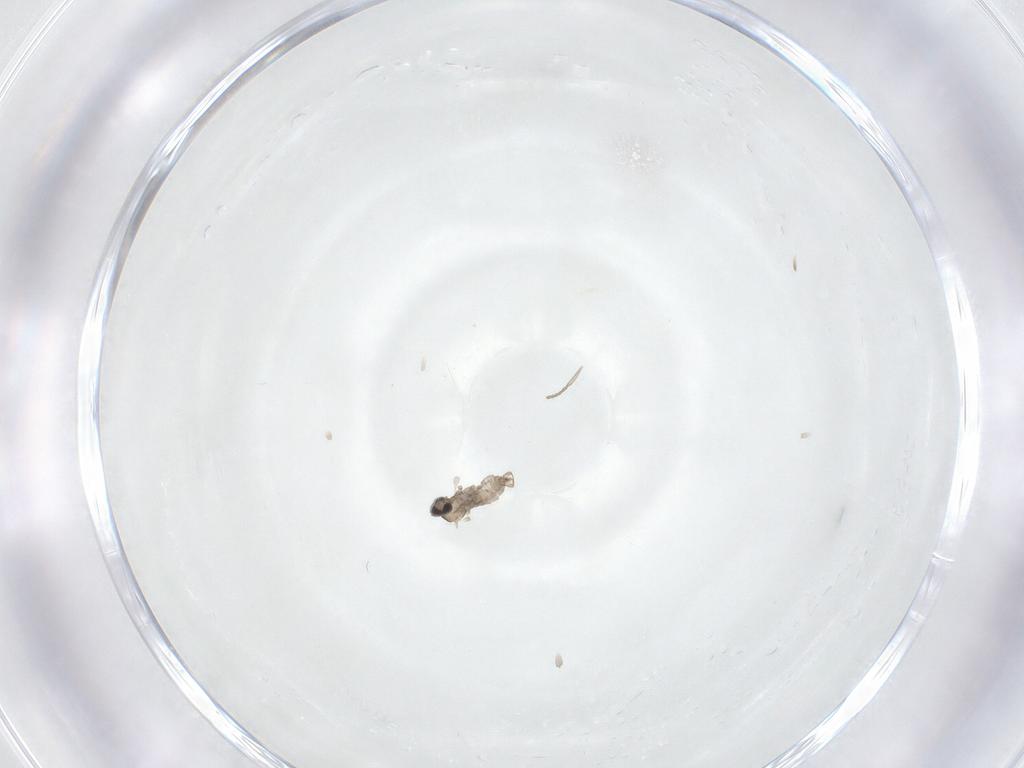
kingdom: Animalia
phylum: Arthropoda
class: Insecta
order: Diptera
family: Cecidomyiidae
